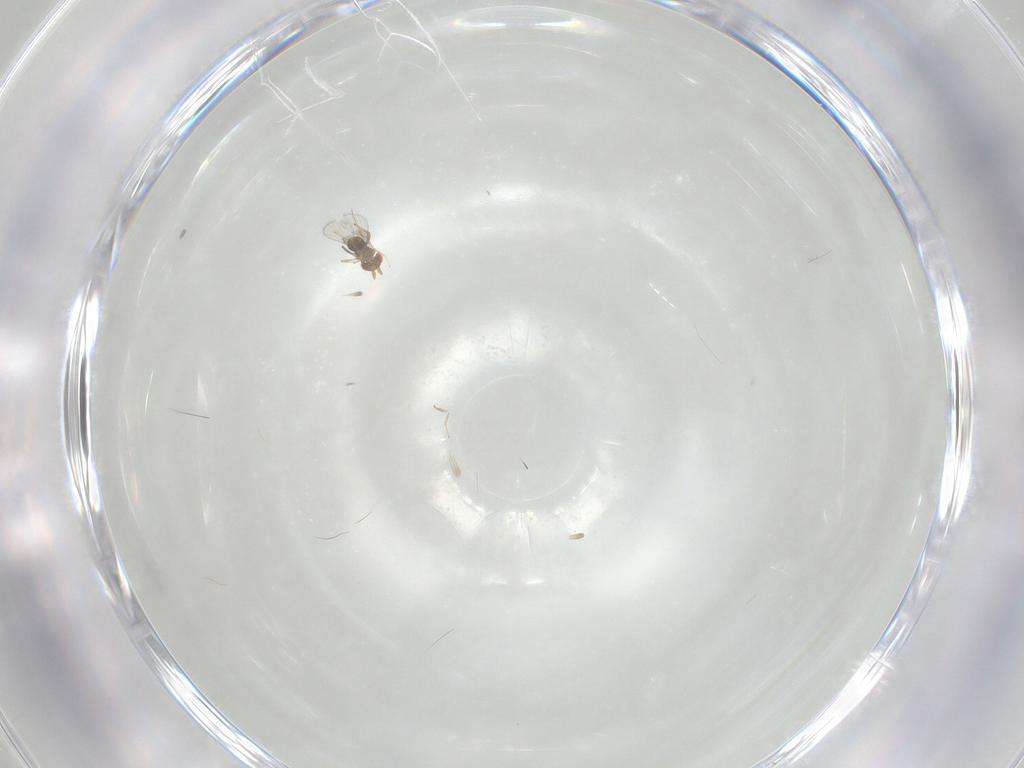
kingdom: Animalia
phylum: Arthropoda
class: Insecta
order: Hymenoptera
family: Trichogrammatidae
